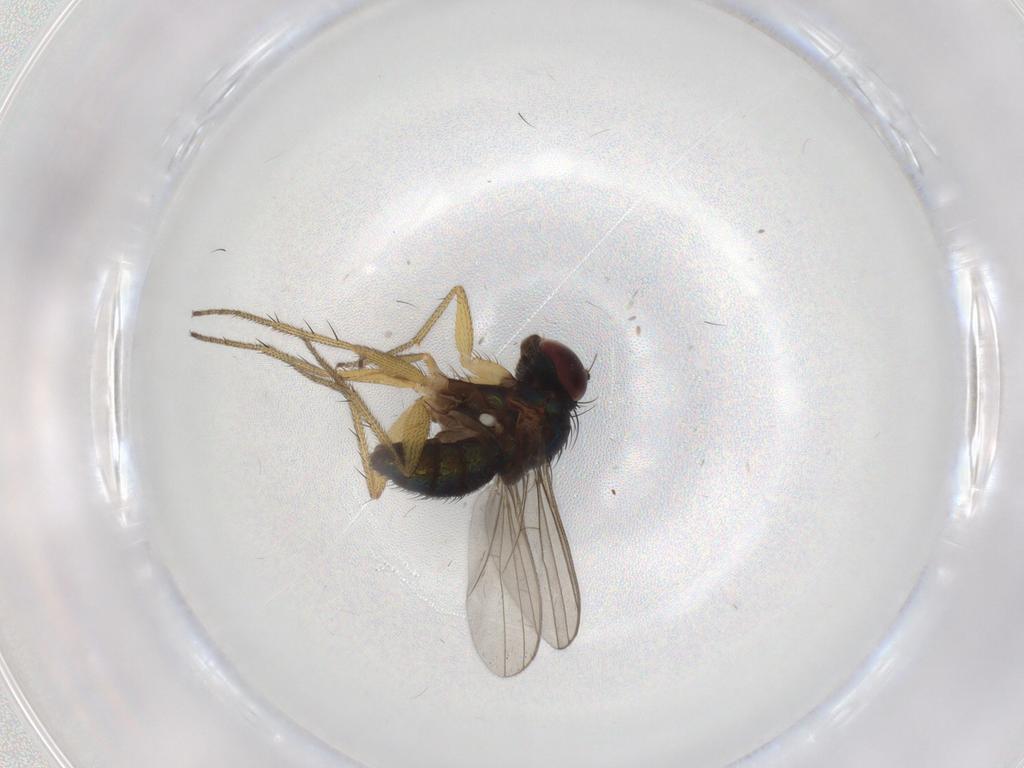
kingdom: Animalia
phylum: Arthropoda
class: Insecta
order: Diptera
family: Dolichopodidae
